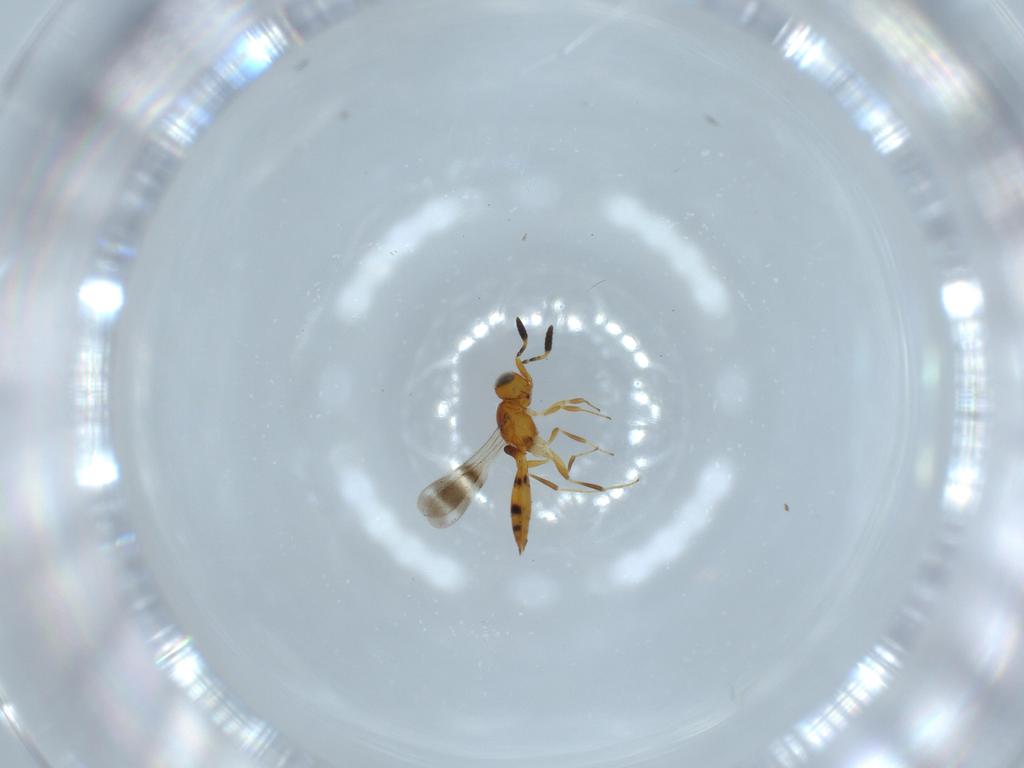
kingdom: Animalia
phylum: Arthropoda
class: Insecta
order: Hymenoptera
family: Scelionidae
